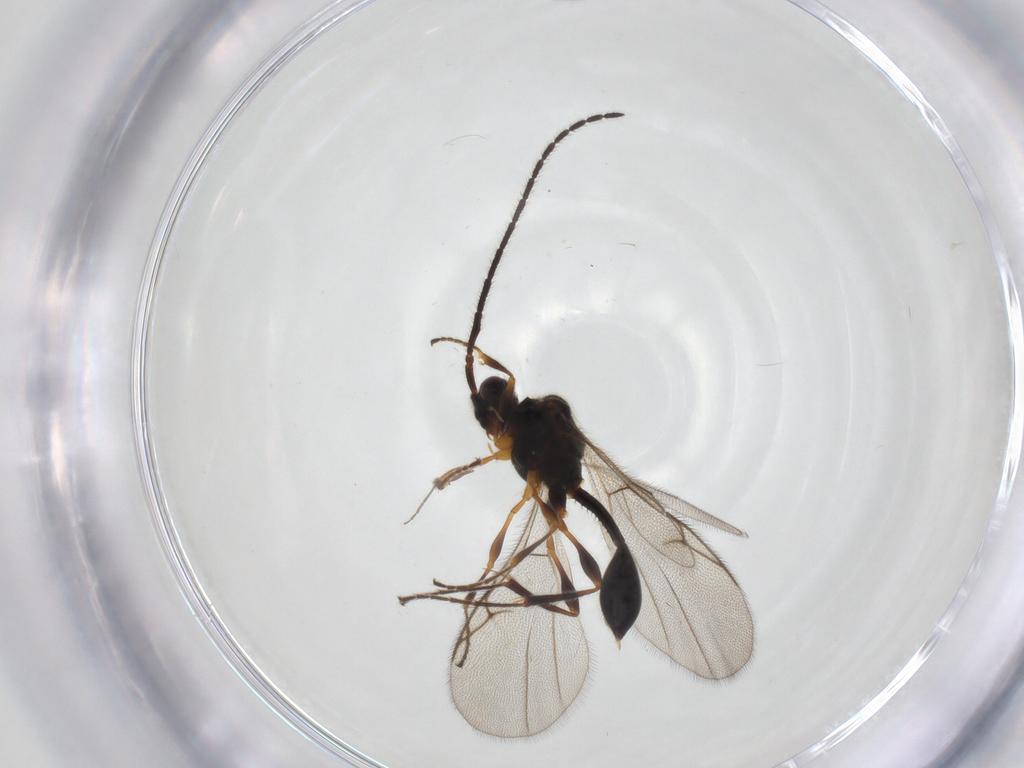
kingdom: Animalia
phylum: Arthropoda
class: Insecta
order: Hymenoptera
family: Diapriidae
